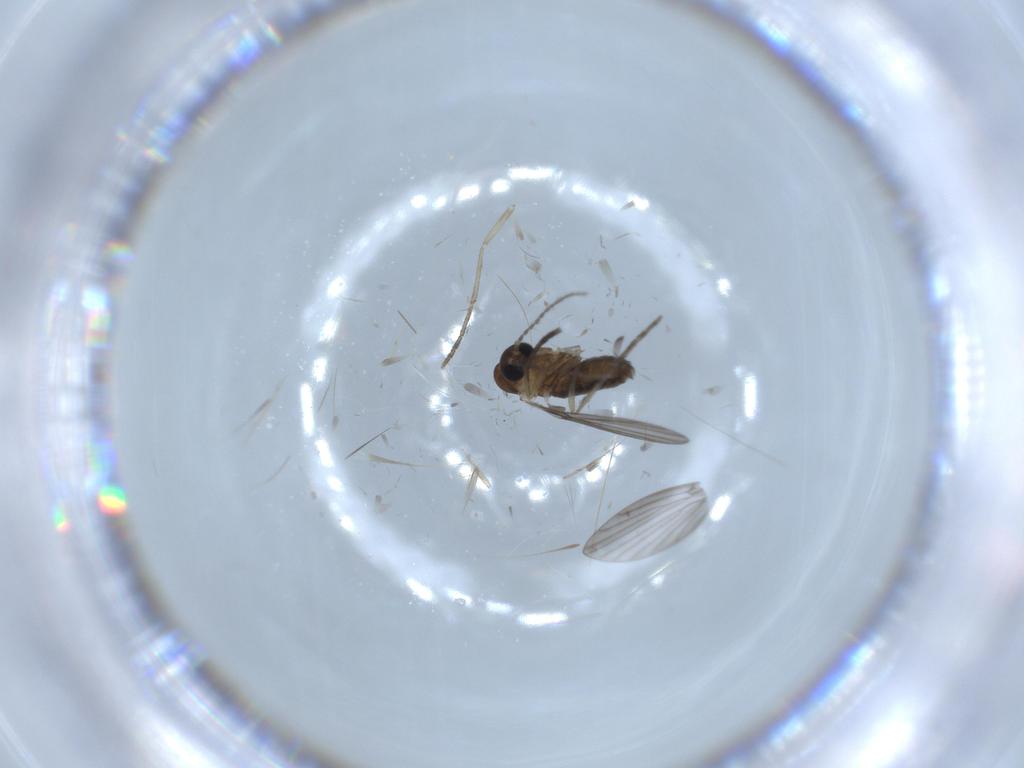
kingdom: Animalia
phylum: Arthropoda
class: Insecta
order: Diptera
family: Psychodidae
